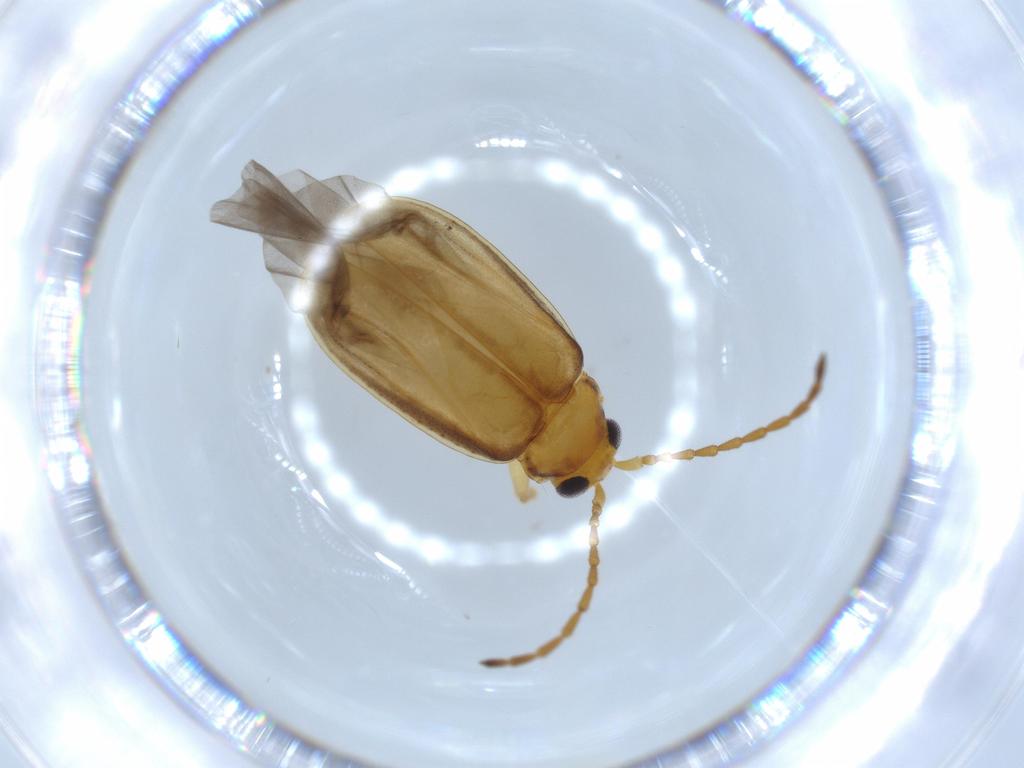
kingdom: Animalia
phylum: Arthropoda
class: Insecta
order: Coleoptera
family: Chrysomelidae
